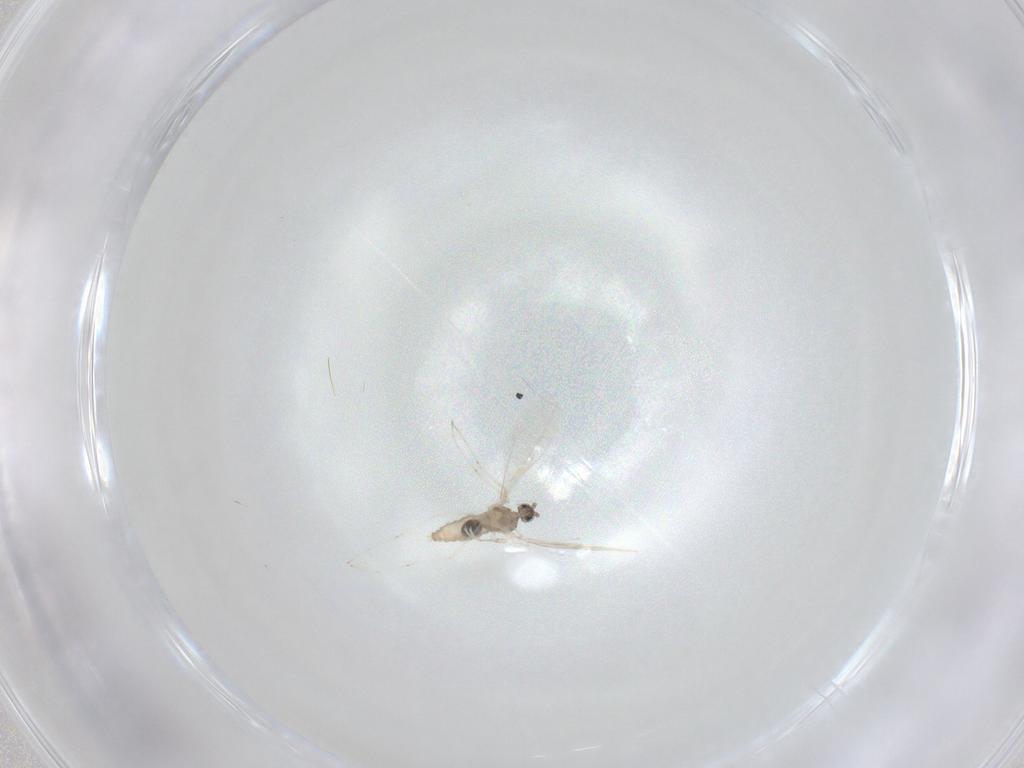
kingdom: Animalia
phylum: Arthropoda
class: Insecta
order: Diptera
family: Cecidomyiidae
